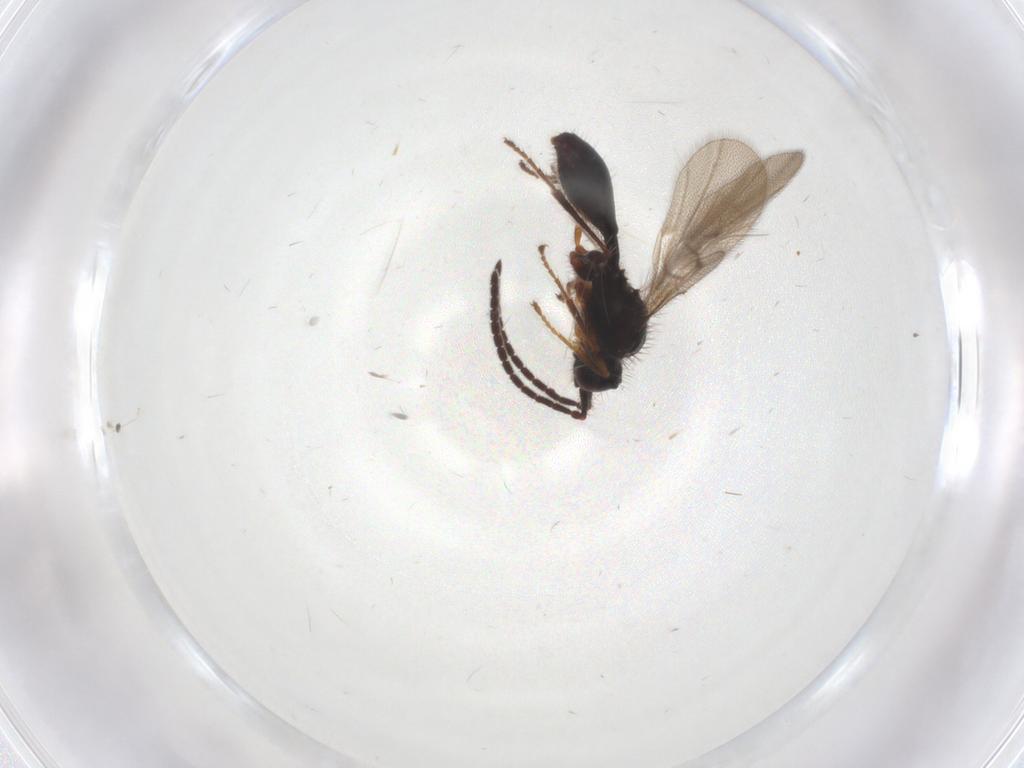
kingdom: Animalia
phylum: Arthropoda
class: Insecta
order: Hymenoptera
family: Diapriidae
